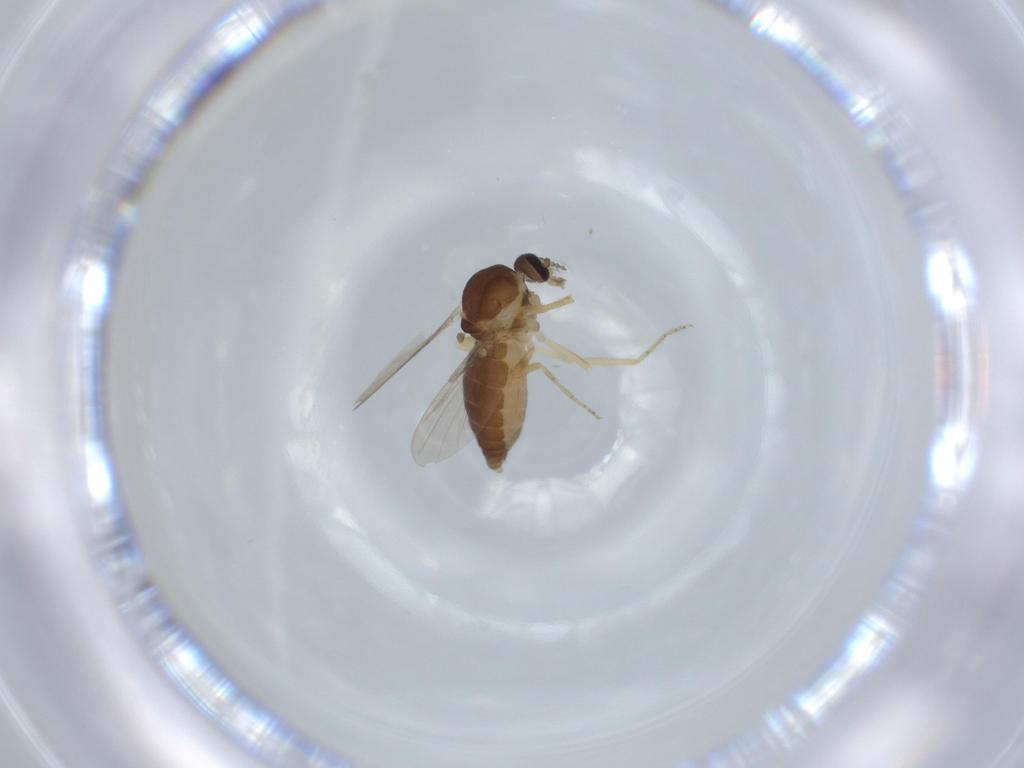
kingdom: Animalia
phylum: Arthropoda
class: Insecta
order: Diptera
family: Ceratopogonidae
